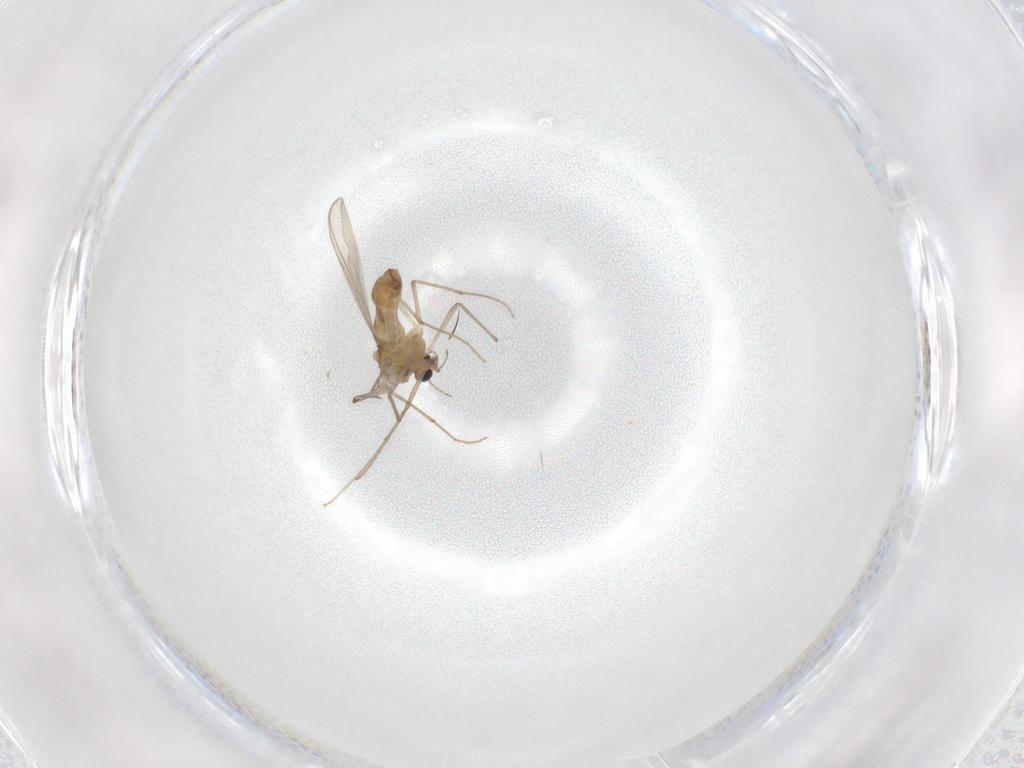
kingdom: Animalia
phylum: Arthropoda
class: Insecta
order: Diptera
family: Chironomidae
